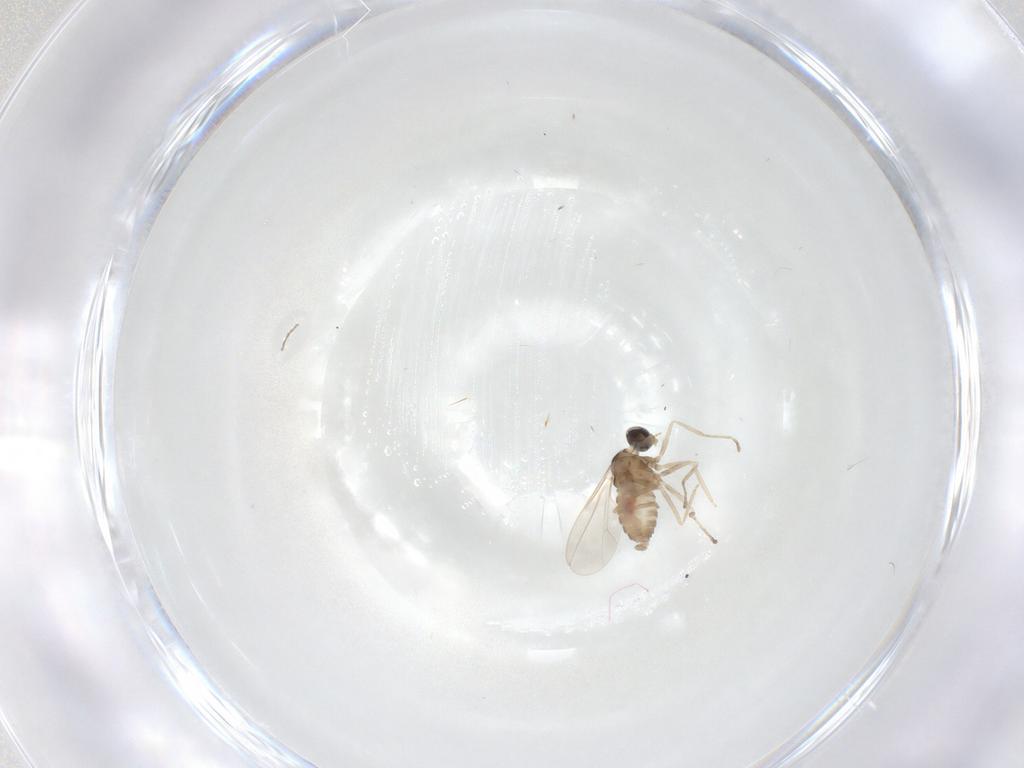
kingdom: Animalia
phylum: Arthropoda
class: Insecta
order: Diptera
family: Cecidomyiidae
